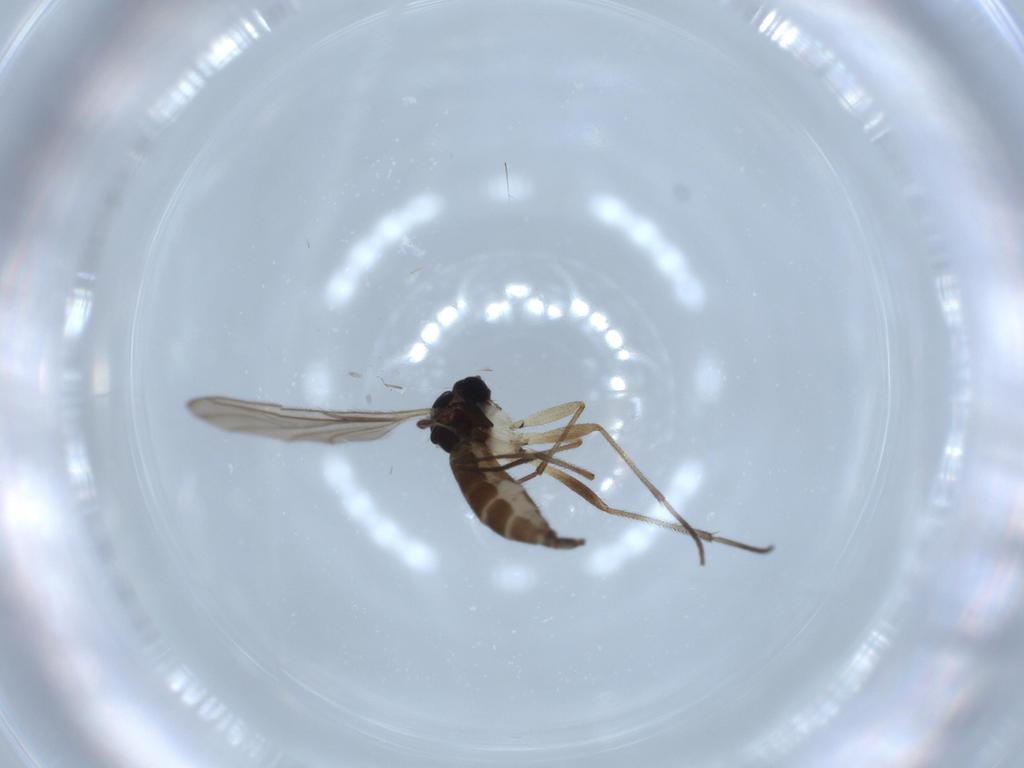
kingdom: Animalia
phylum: Arthropoda
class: Insecta
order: Diptera
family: Sciaridae
